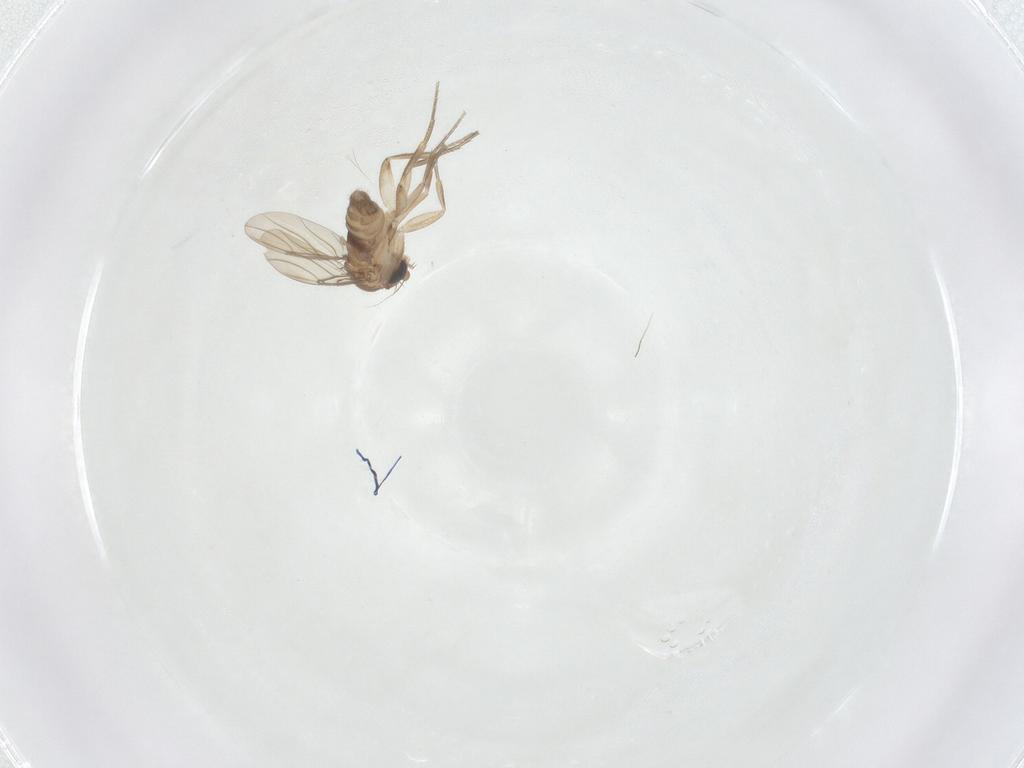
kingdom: Animalia
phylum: Arthropoda
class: Insecta
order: Diptera
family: Phoridae
